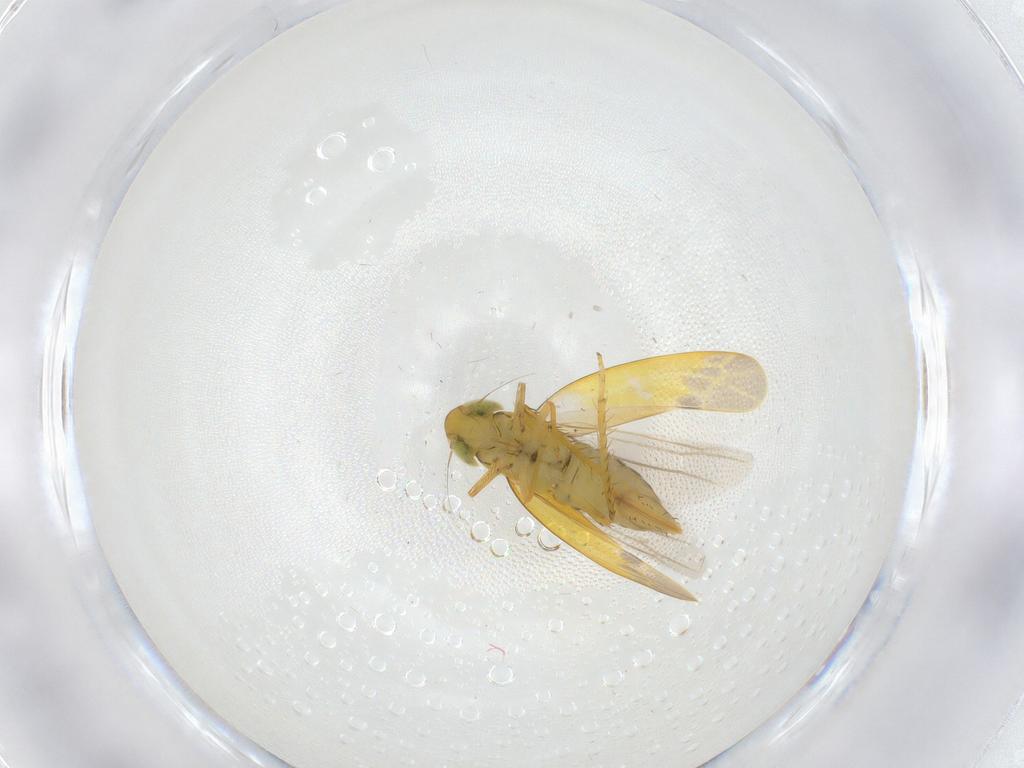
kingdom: Animalia
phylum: Arthropoda
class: Insecta
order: Hemiptera
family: Cicadellidae
